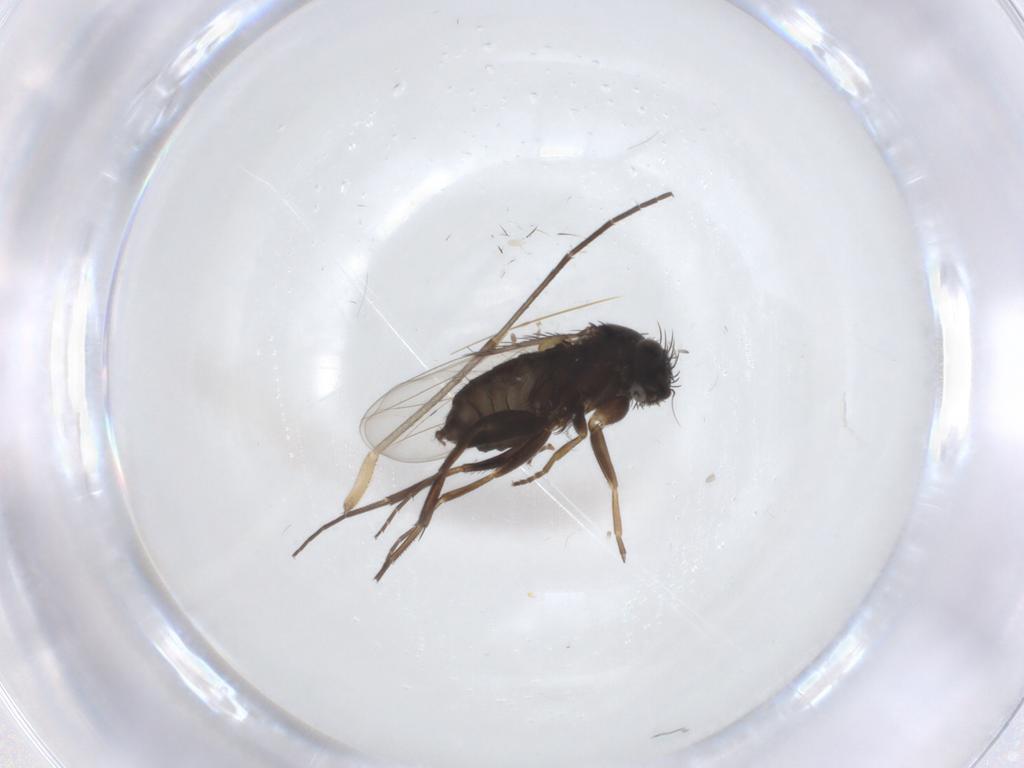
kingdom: Animalia
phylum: Arthropoda
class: Insecta
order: Diptera
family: Phoridae
